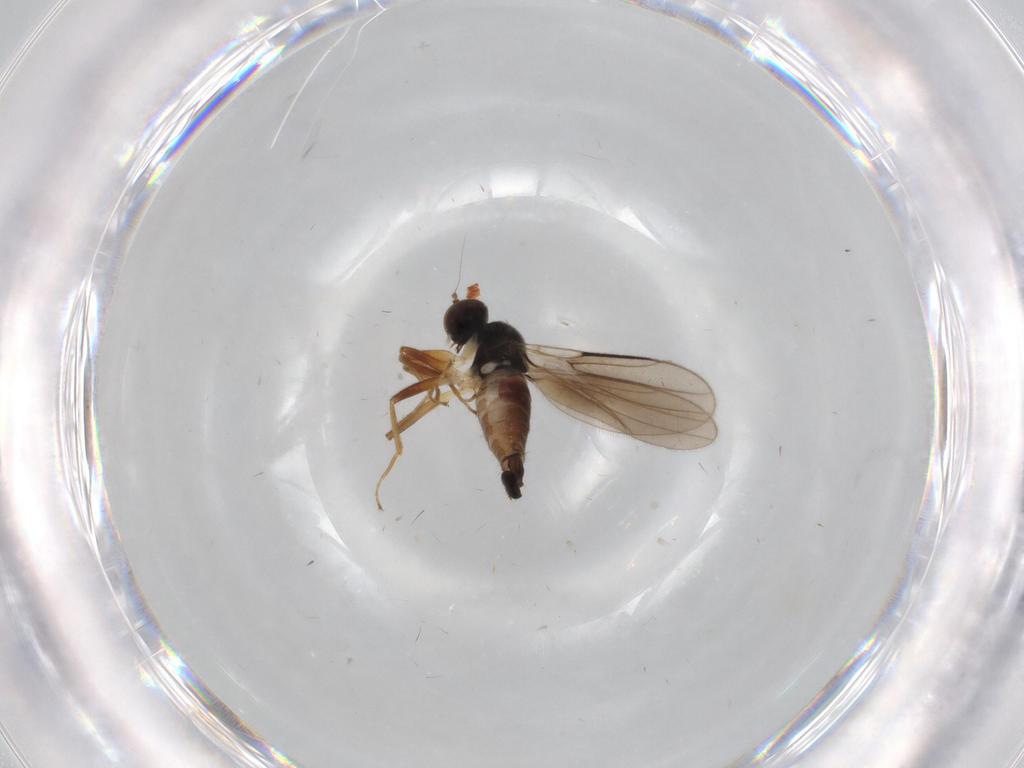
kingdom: Animalia
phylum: Arthropoda
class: Insecta
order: Diptera
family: Hybotidae
